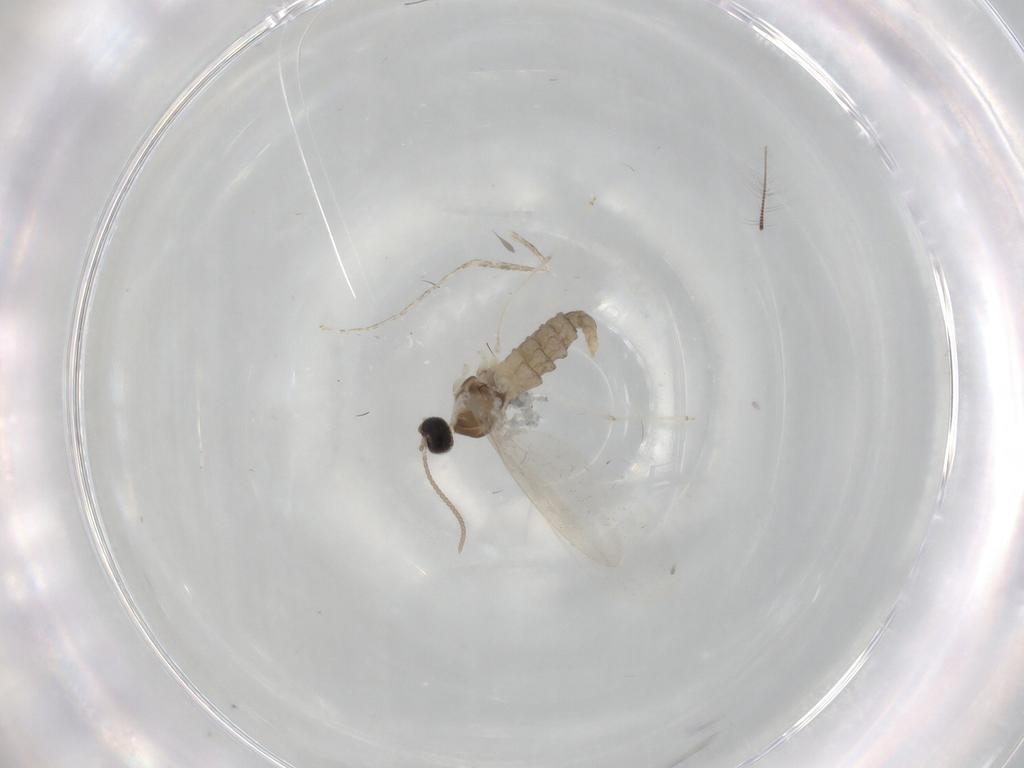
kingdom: Animalia
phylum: Arthropoda
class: Insecta
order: Diptera
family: Cecidomyiidae
